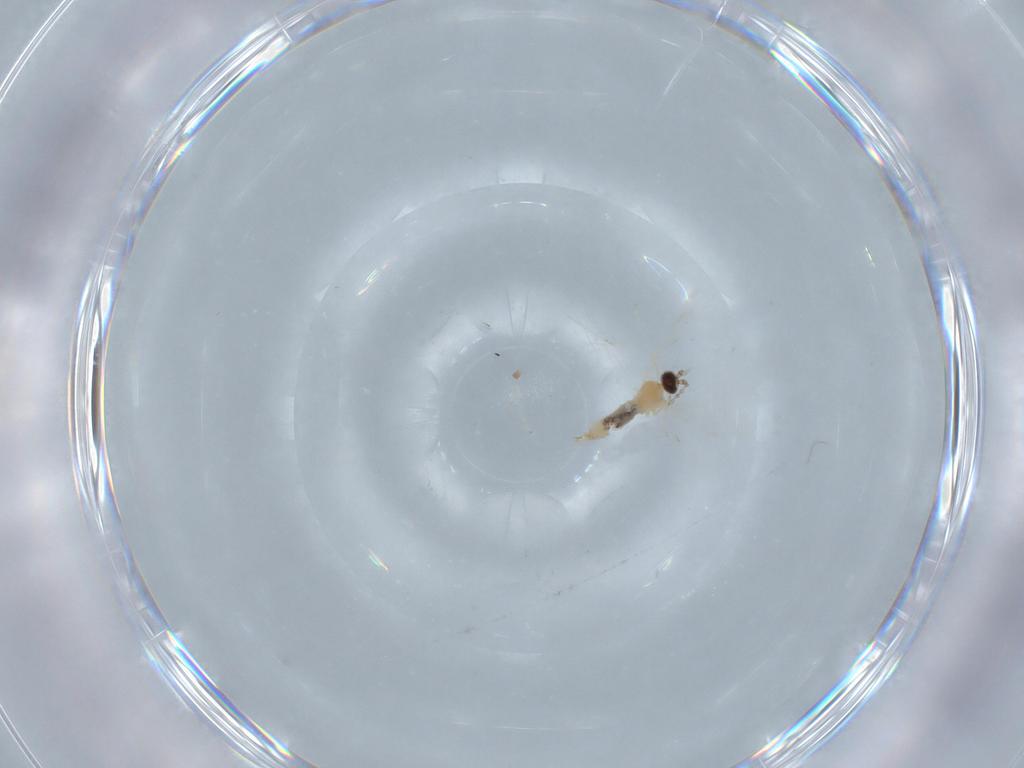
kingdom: Animalia
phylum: Arthropoda
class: Insecta
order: Diptera
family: Cecidomyiidae
